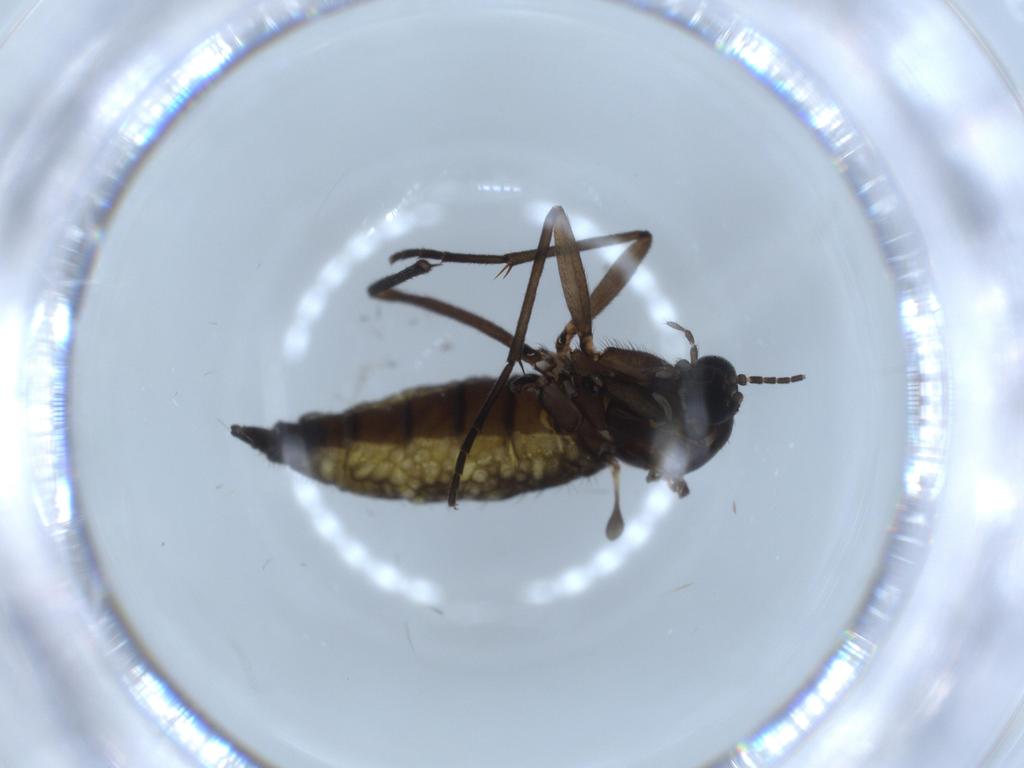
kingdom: Animalia
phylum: Arthropoda
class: Insecta
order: Diptera
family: Sciaridae
